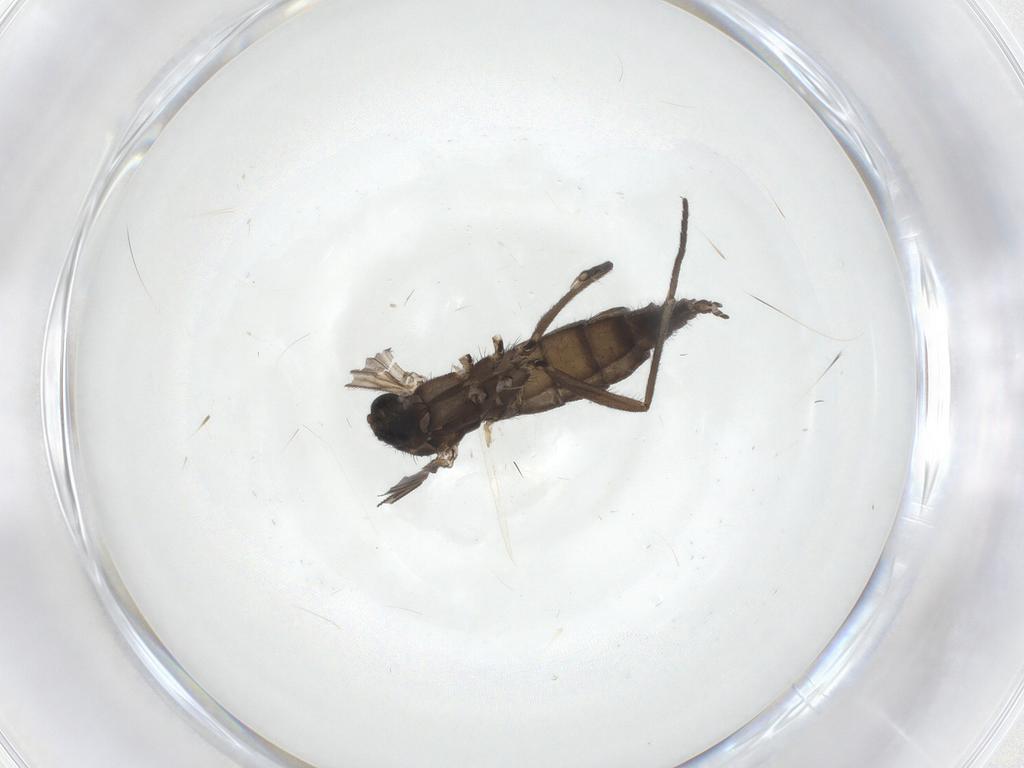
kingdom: Animalia
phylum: Arthropoda
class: Insecta
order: Diptera
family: Sciaridae
